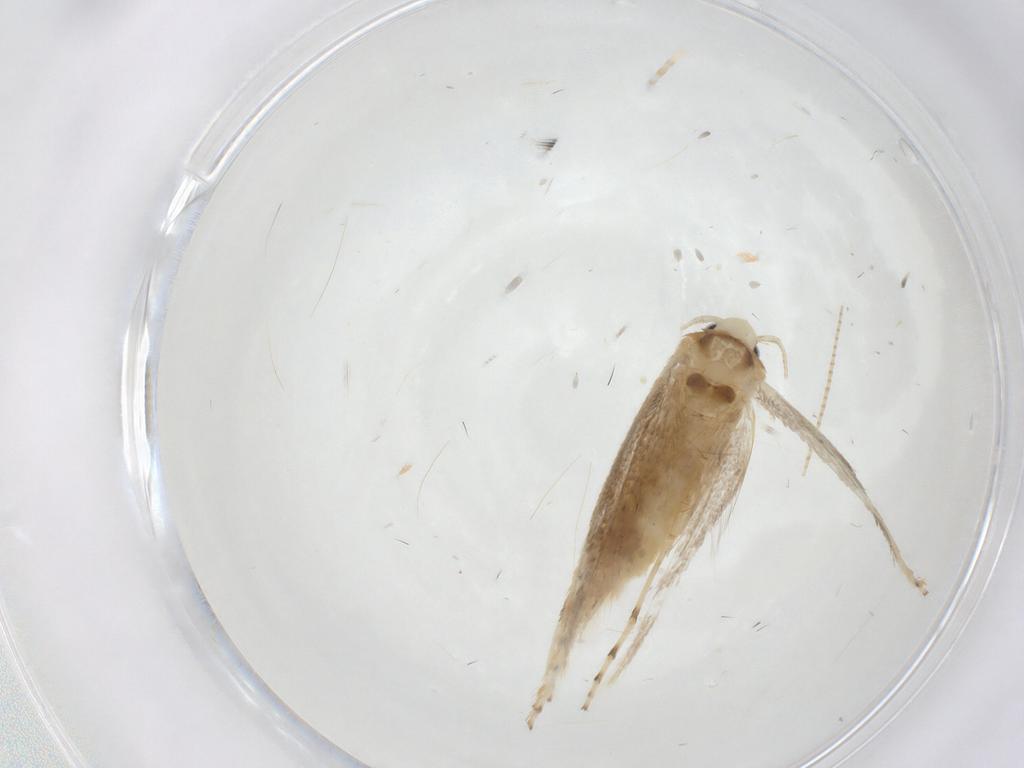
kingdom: Animalia
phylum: Arthropoda
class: Insecta
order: Lepidoptera
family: Gracillariidae
